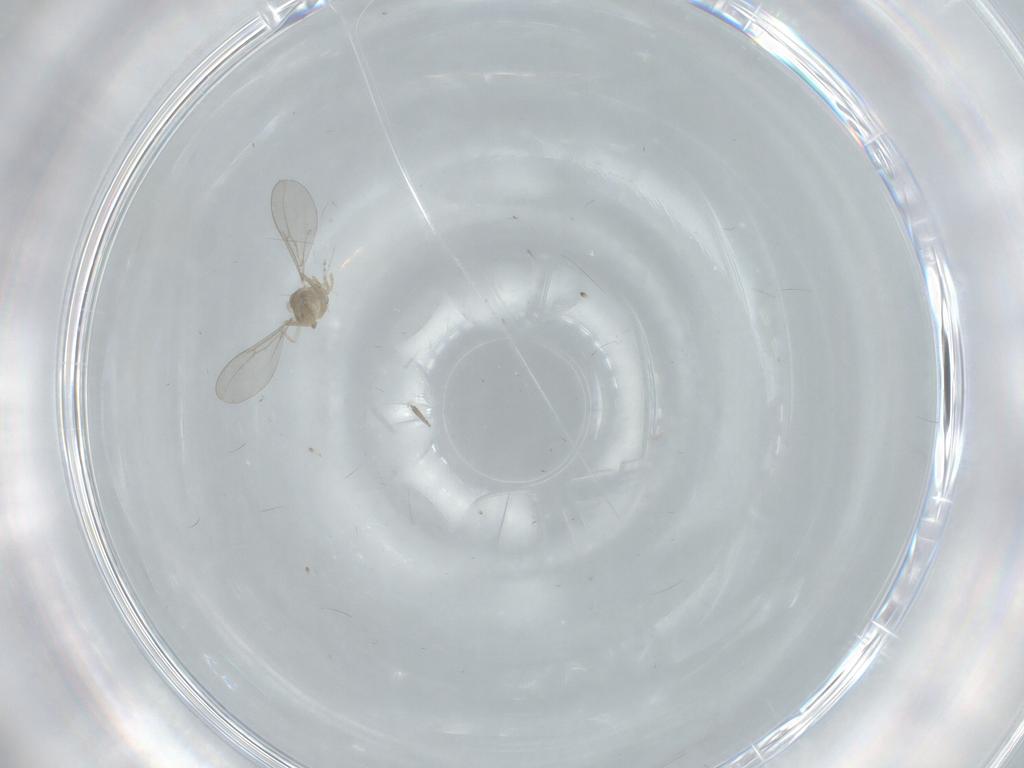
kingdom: Animalia
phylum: Arthropoda
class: Insecta
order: Diptera
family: Cecidomyiidae
